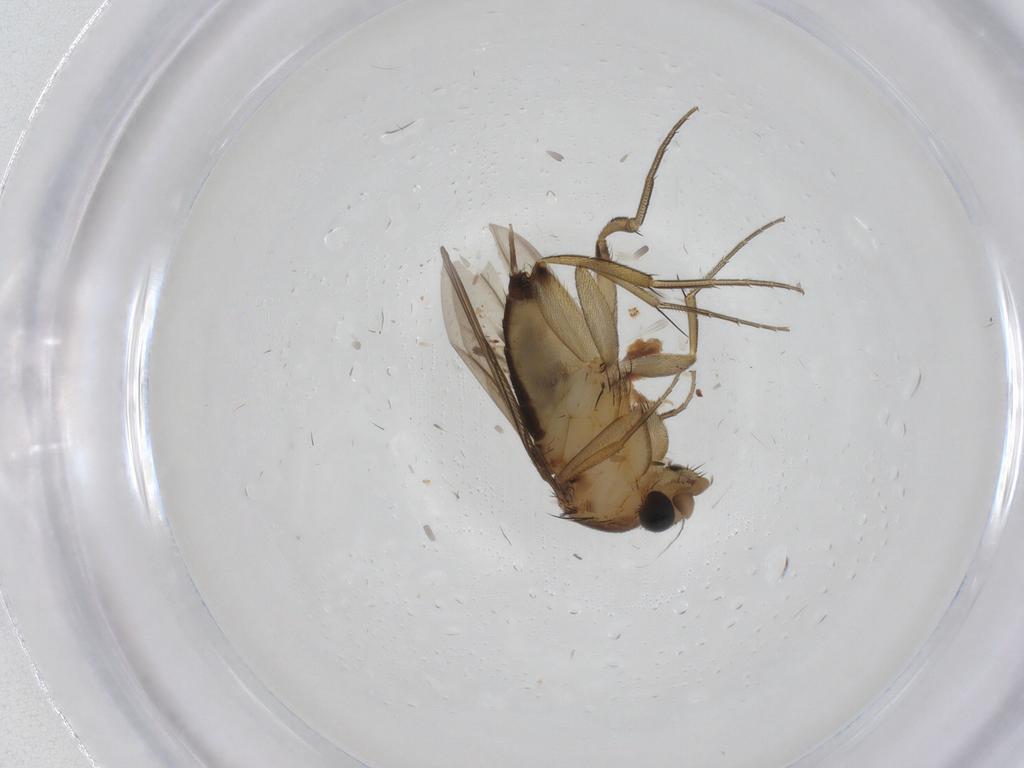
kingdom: Animalia
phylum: Arthropoda
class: Insecta
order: Diptera
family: Phoridae
